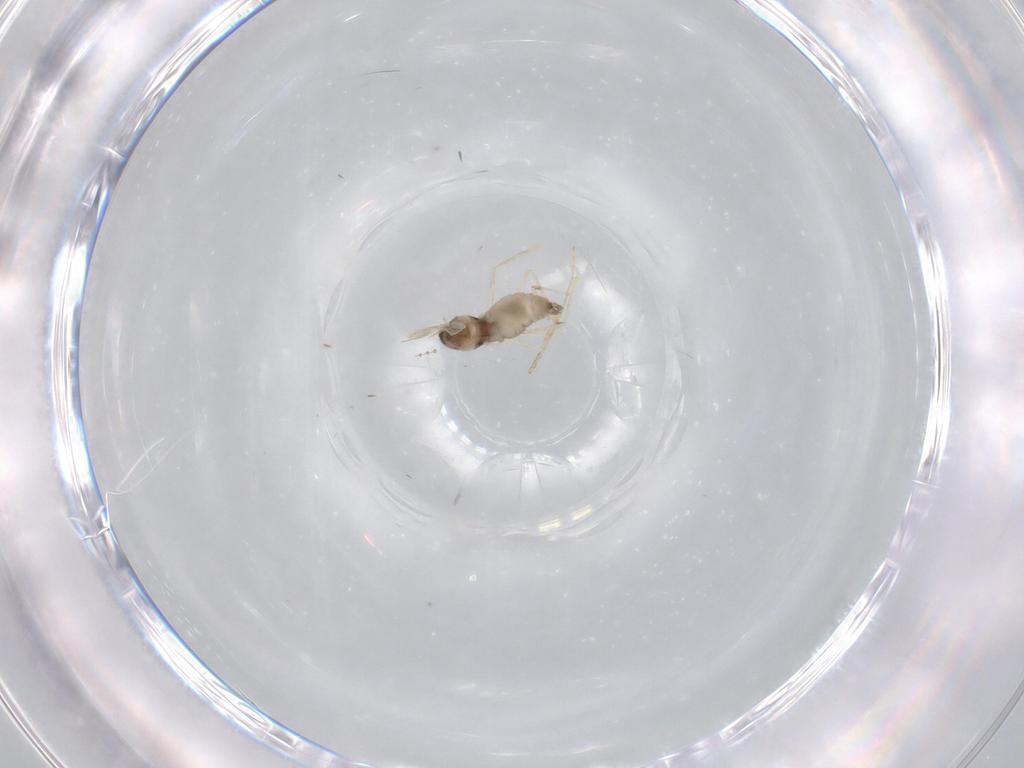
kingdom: Animalia
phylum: Arthropoda
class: Insecta
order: Diptera
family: Cecidomyiidae
